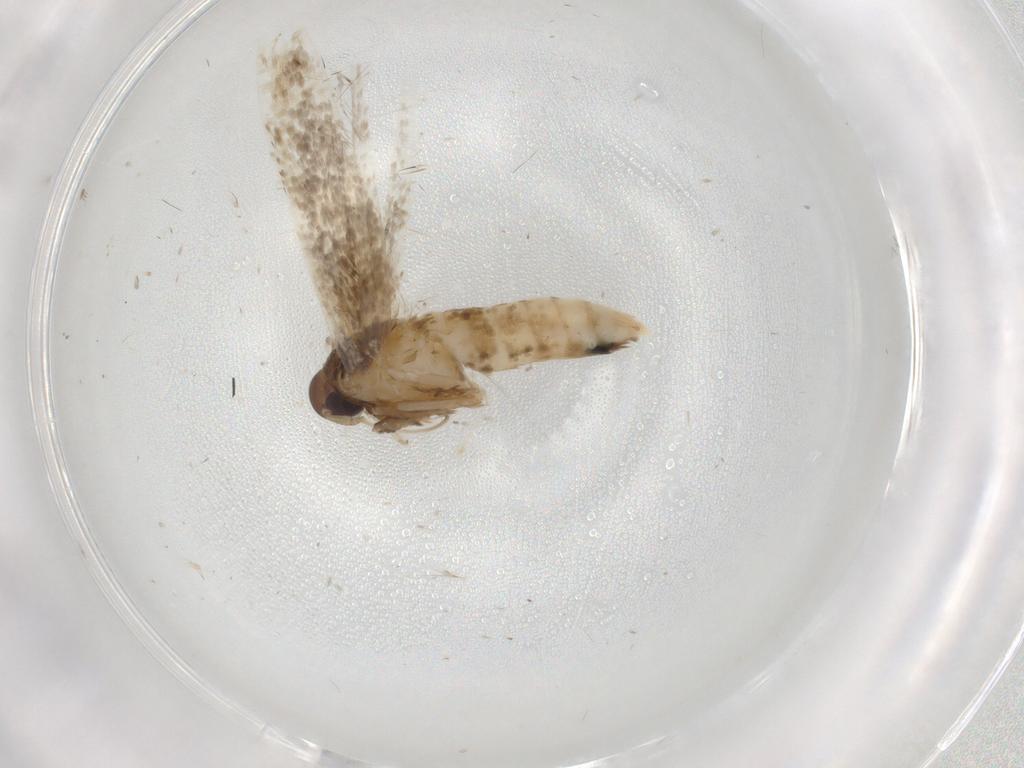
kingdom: Animalia
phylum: Arthropoda
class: Insecta
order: Lepidoptera
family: Cosmopterigidae
